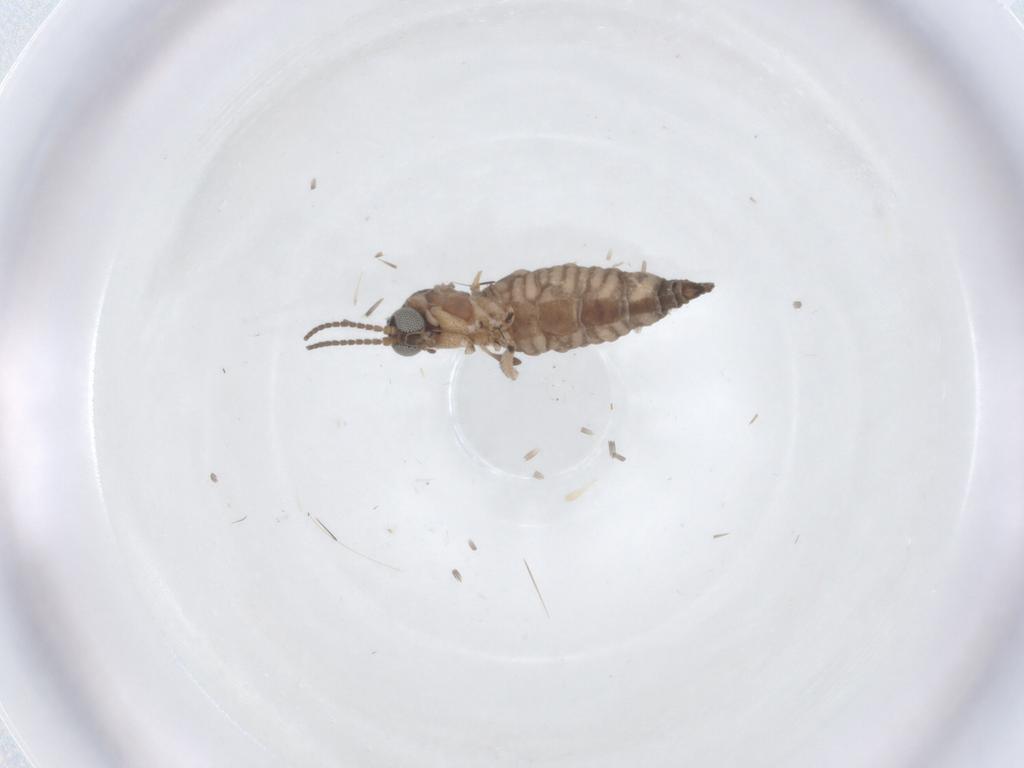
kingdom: Animalia
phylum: Arthropoda
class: Insecta
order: Diptera
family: Sciaridae
